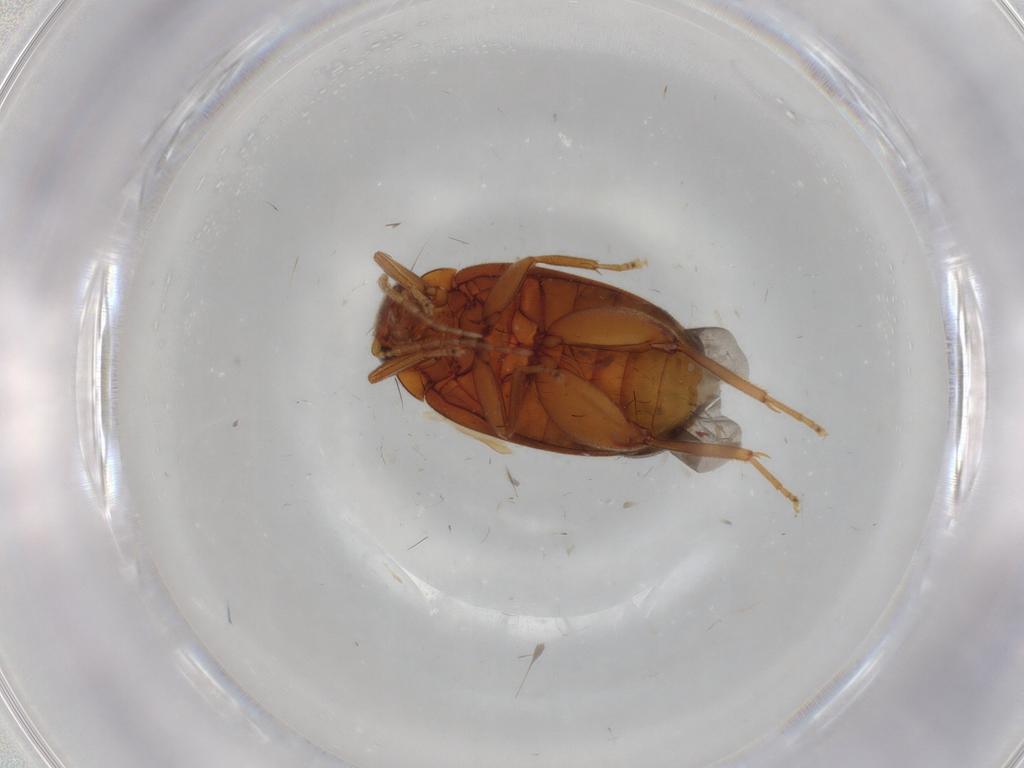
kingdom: Animalia
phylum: Arthropoda
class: Insecta
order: Coleoptera
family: Scirtidae
